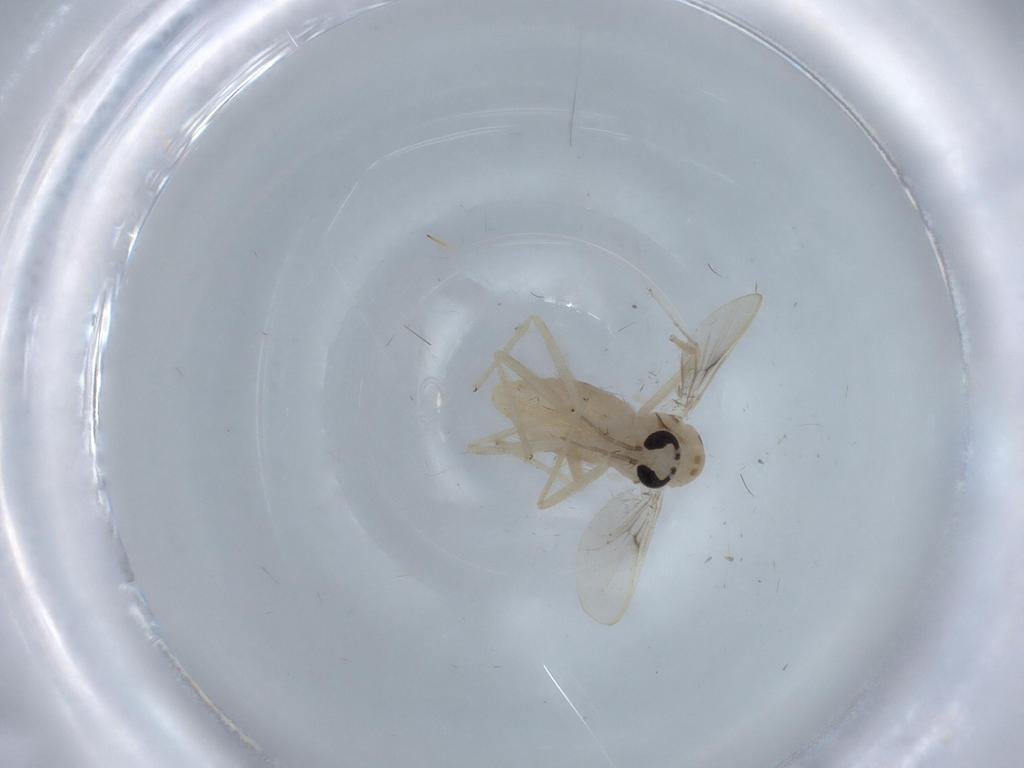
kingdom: Animalia
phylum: Arthropoda
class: Insecta
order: Diptera
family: Chironomidae
